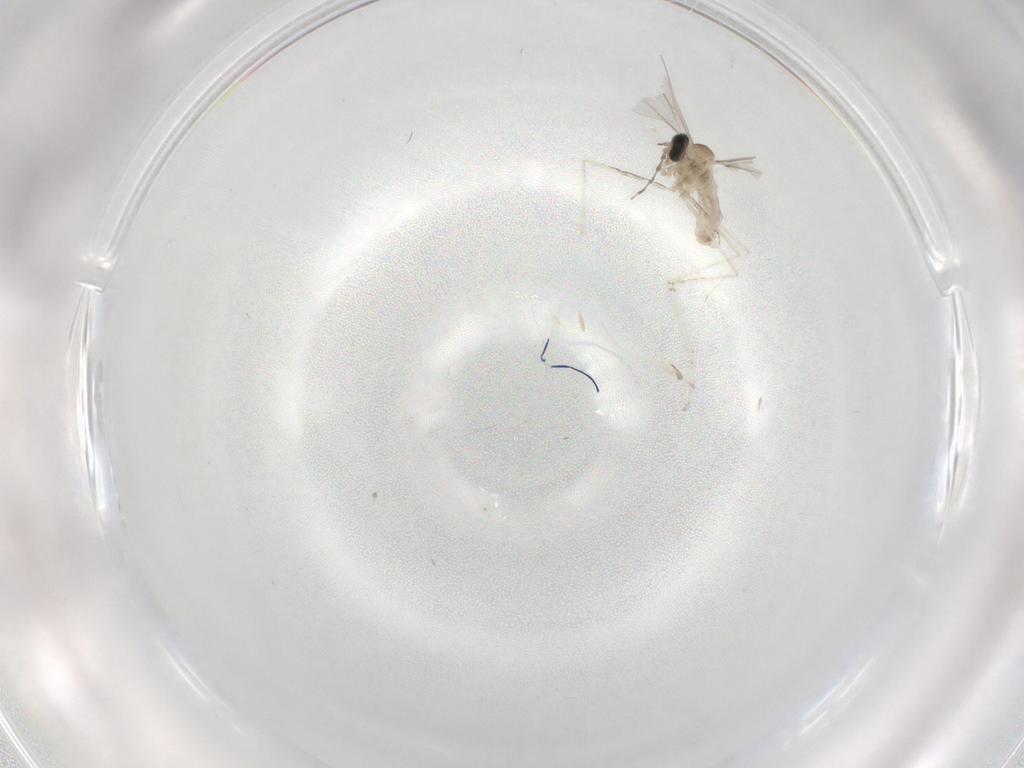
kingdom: Animalia
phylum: Arthropoda
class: Insecta
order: Diptera
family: Cecidomyiidae
